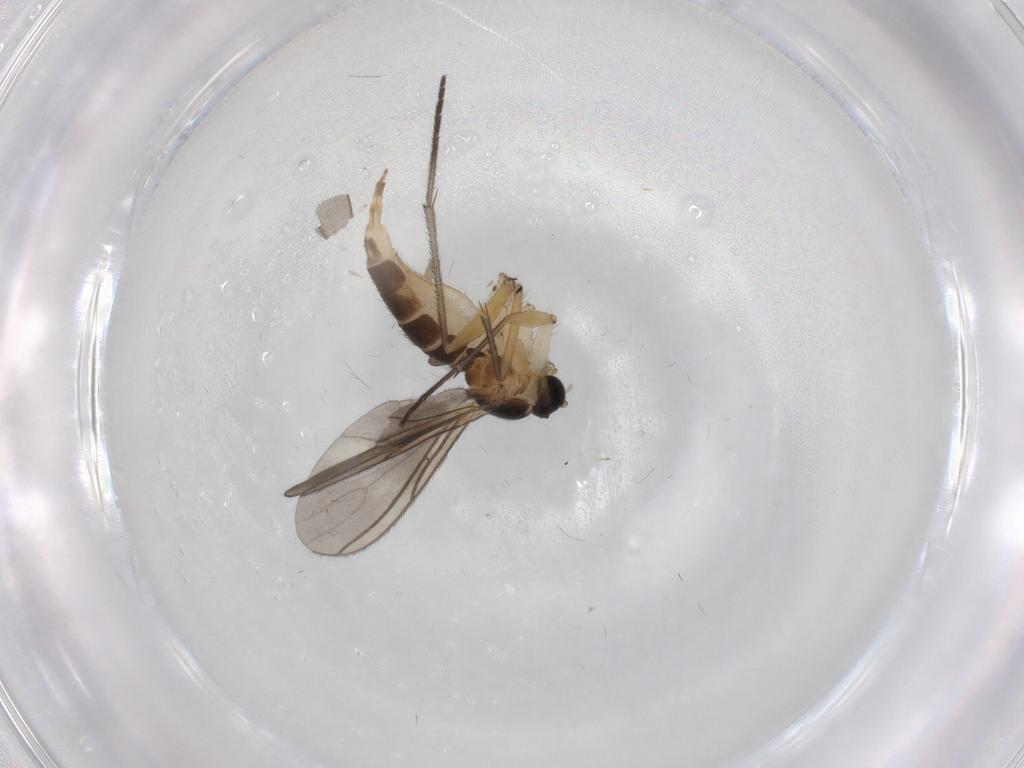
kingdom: Animalia
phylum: Arthropoda
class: Insecta
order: Diptera
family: Sciaridae
